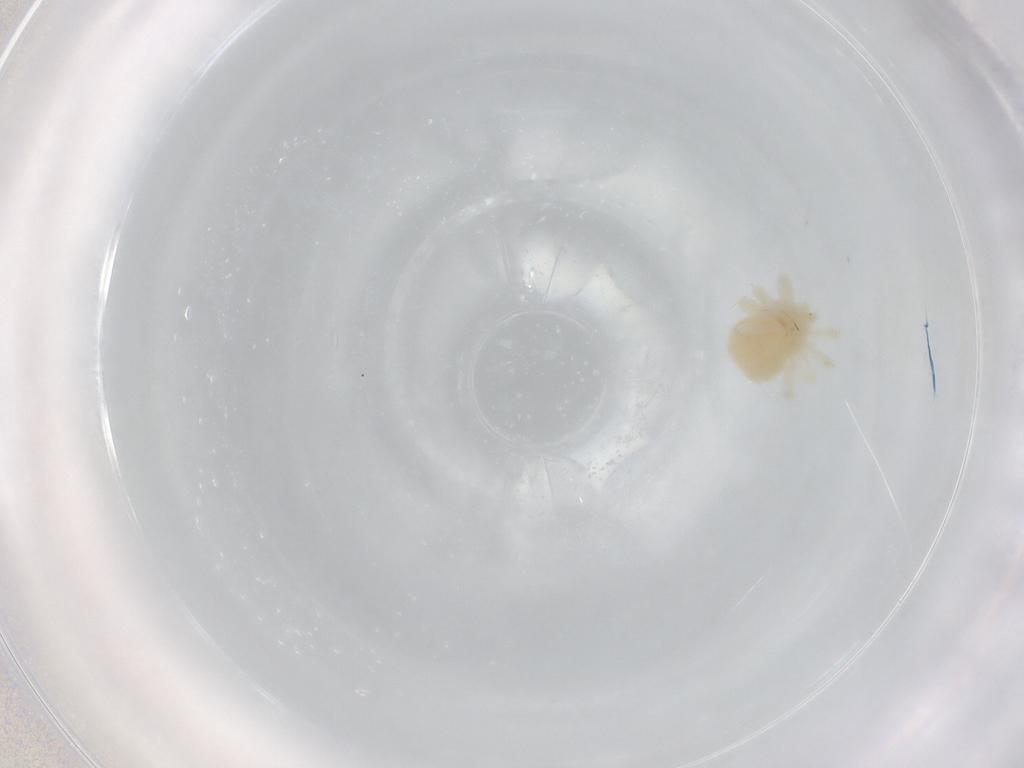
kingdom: Animalia
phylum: Arthropoda
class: Arachnida
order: Trombidiformes
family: Anystidae
